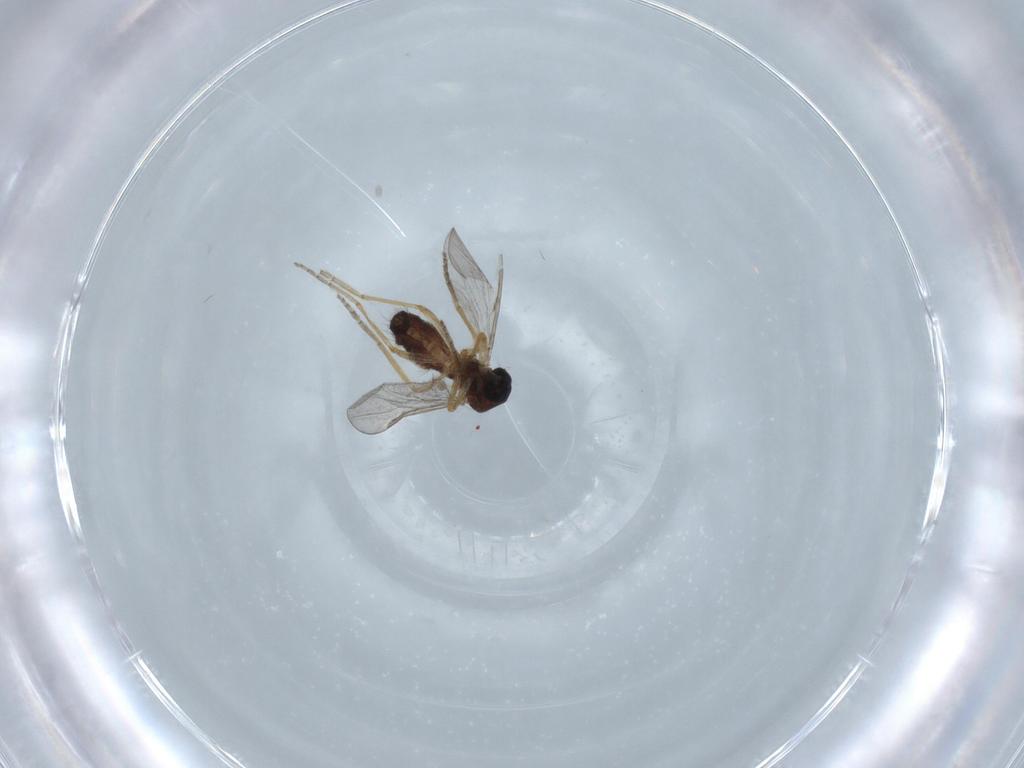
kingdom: Animalia
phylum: Arthropoda
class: Insecta
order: Diptera
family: Ceratopogonidae
